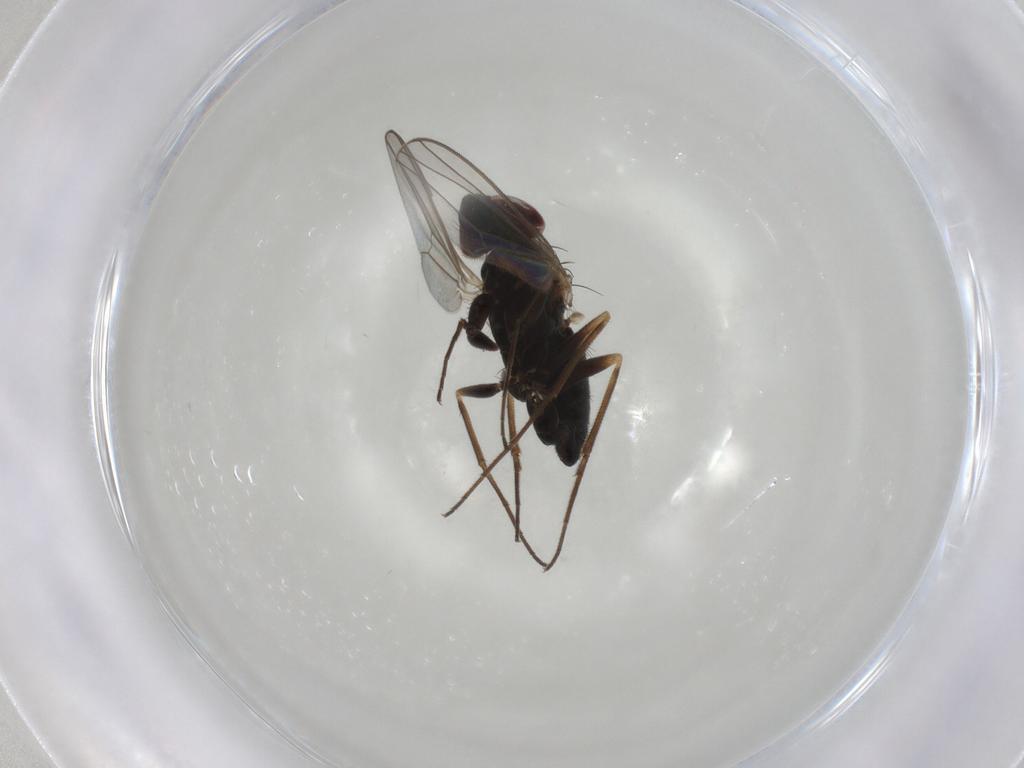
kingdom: Animalia
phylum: Arthropoda
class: Insecta
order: Diptera
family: Dolichopodidae
